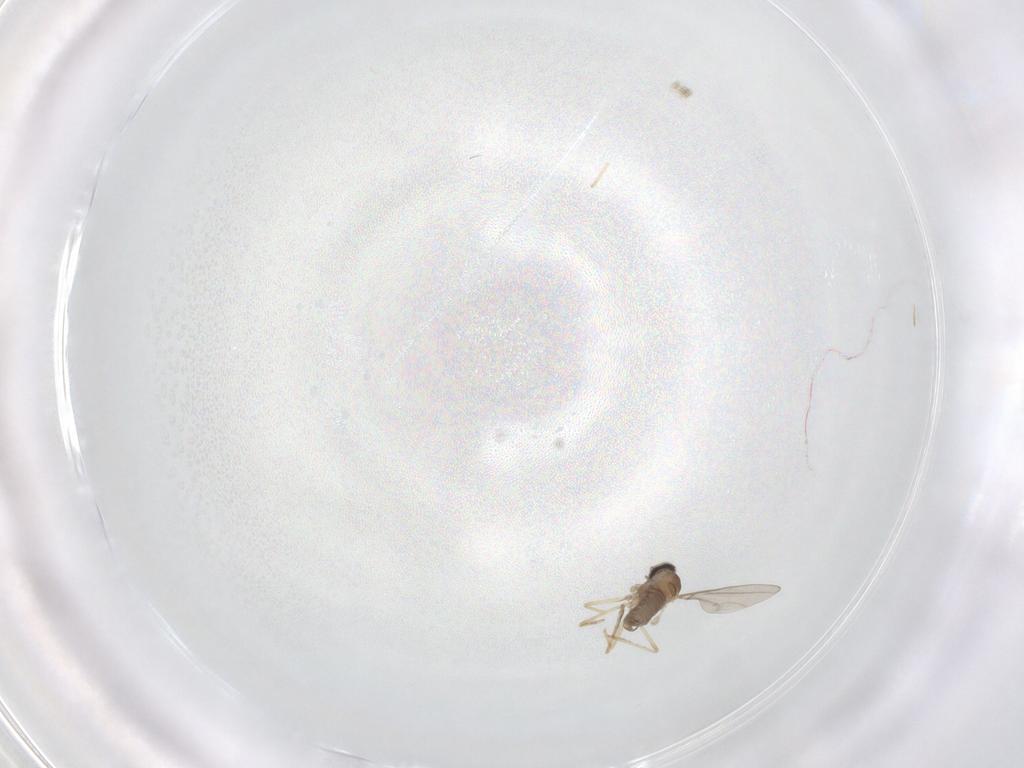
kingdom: Animalia
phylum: Arthropoda
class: Insecta
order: Diptera
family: Cecidomyiidae
